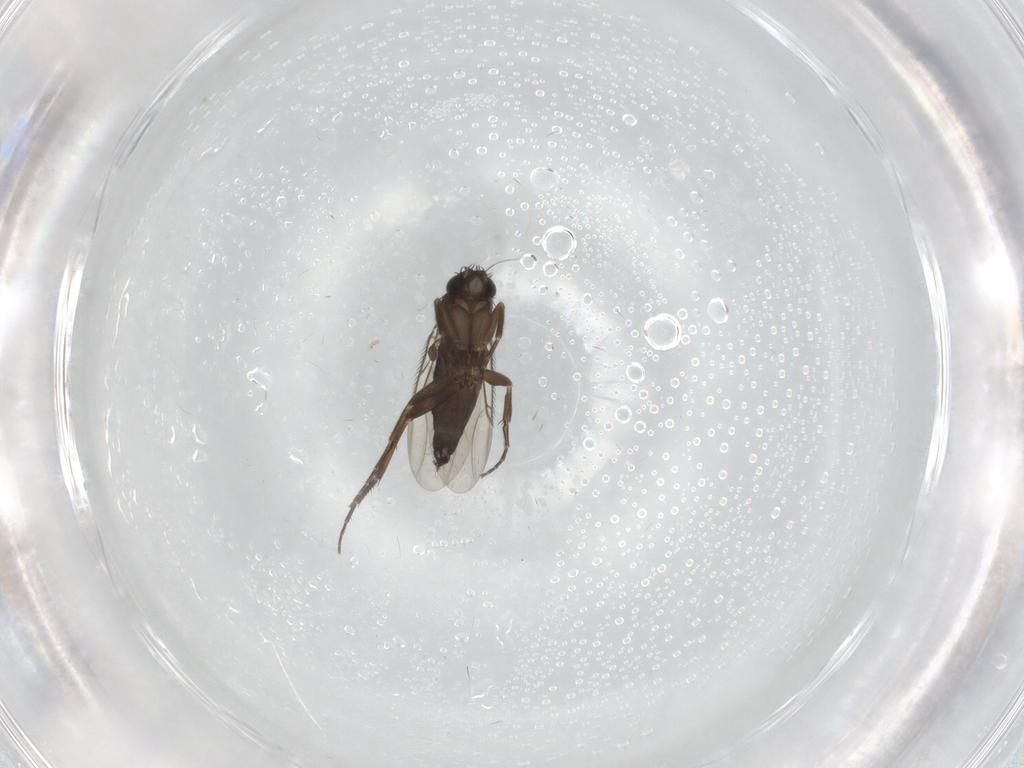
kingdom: Animalia
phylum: Arthropoda
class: Insecta
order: Diptera
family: Phoridae
